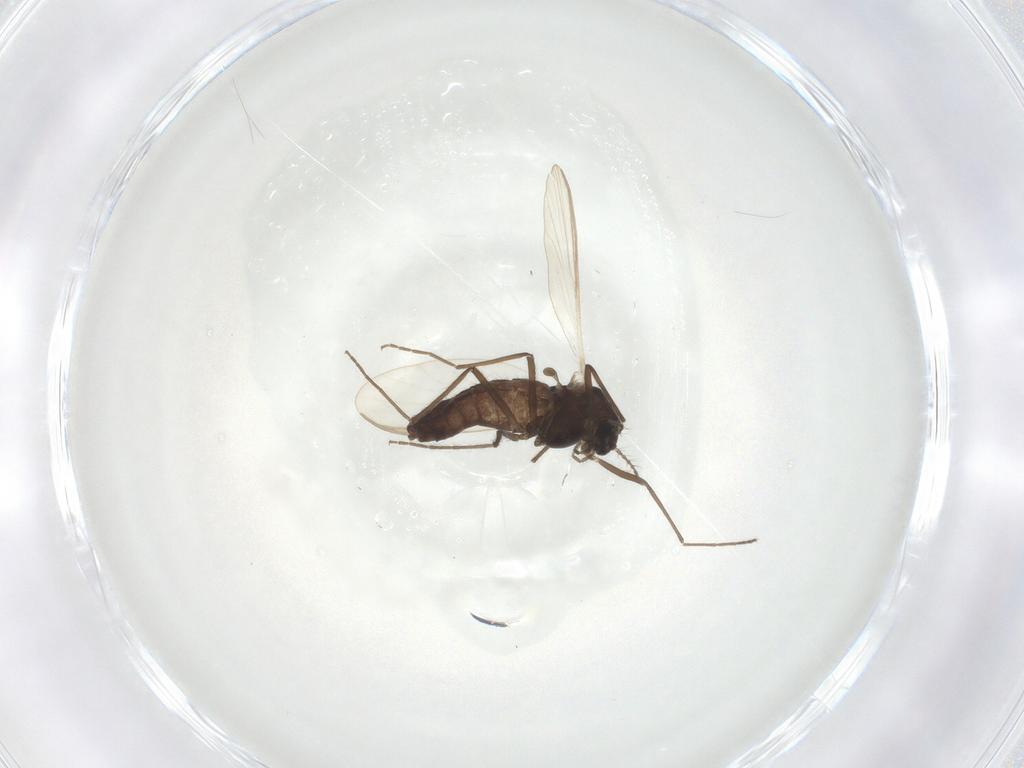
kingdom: Animalia
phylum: Arthropoda
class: Insecta
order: Diptera
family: Chironomidae
